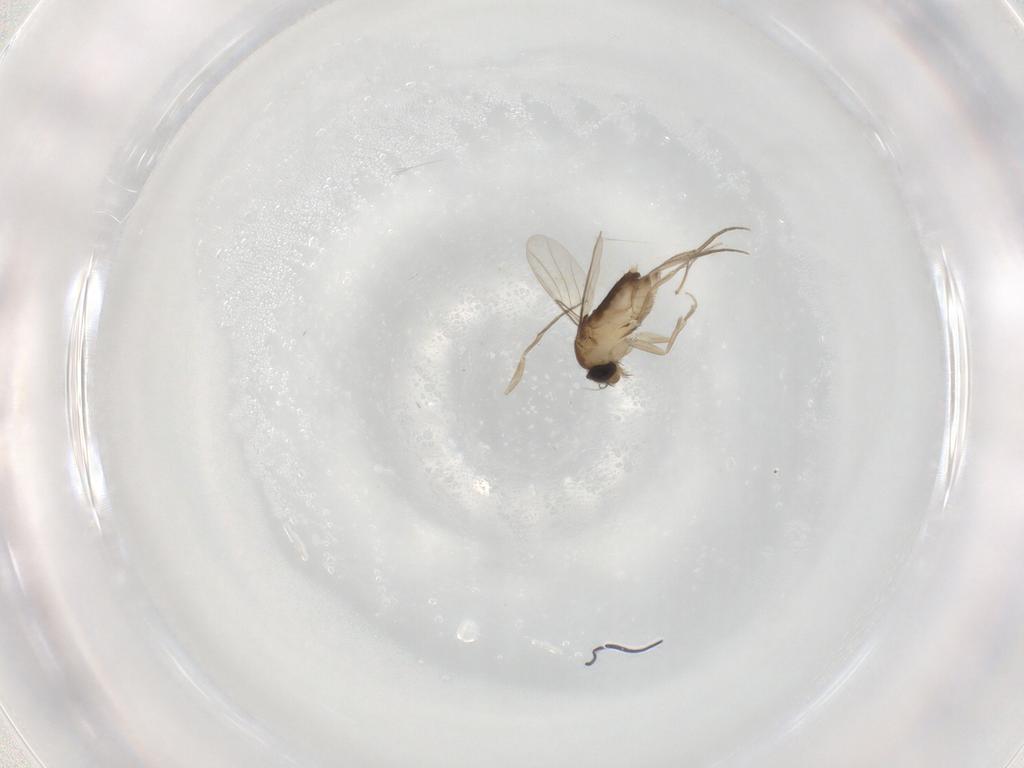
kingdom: Animalia
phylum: Arthropoda
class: Insecta
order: Diptera
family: Phoridae
